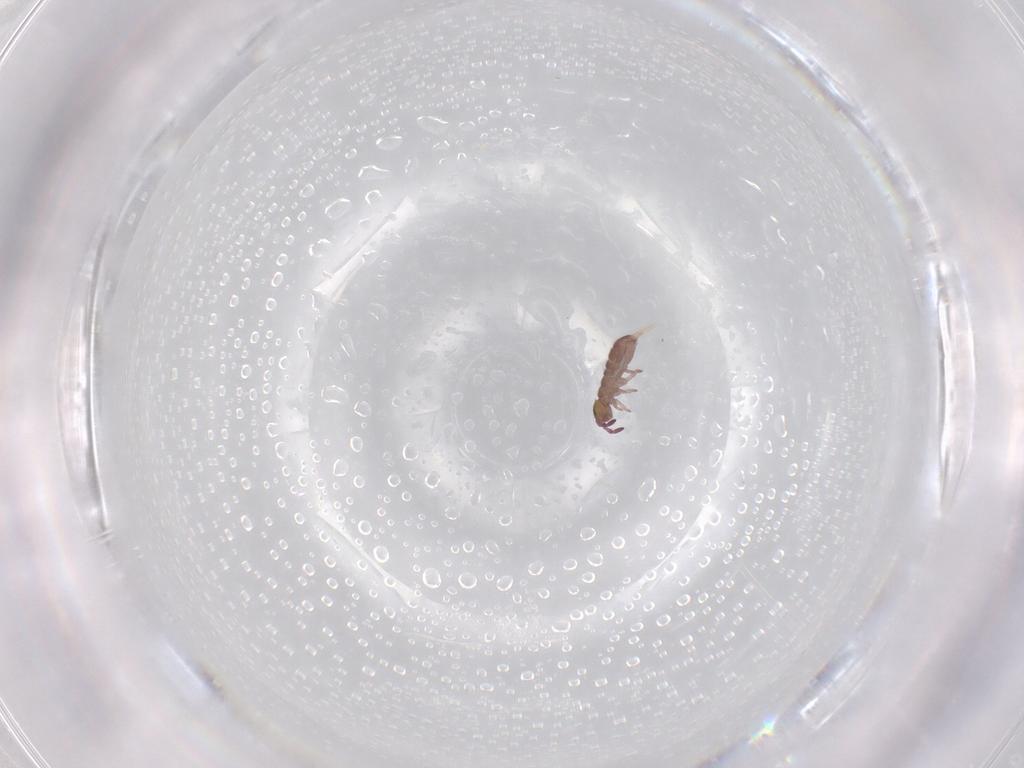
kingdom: Animalia
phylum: Arthropoda
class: Collembola
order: Entomobryomorpha
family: Isotomidae
